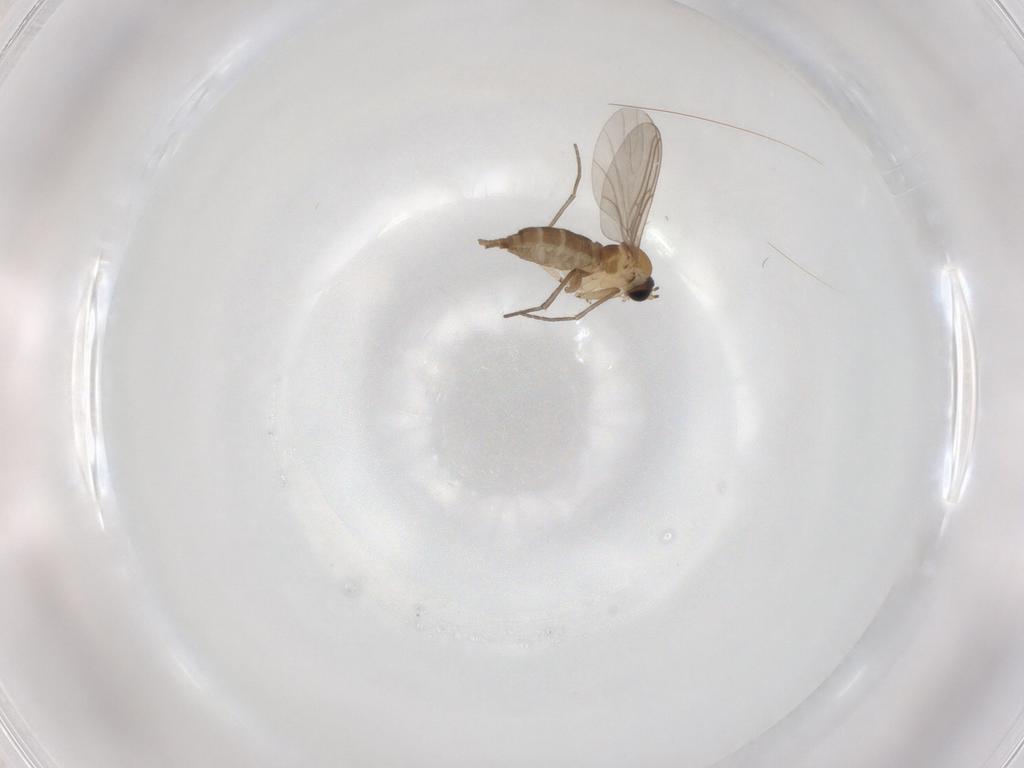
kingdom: Animalia
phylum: Arthropoda
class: Insecta
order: Diptera
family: Sciaridae
